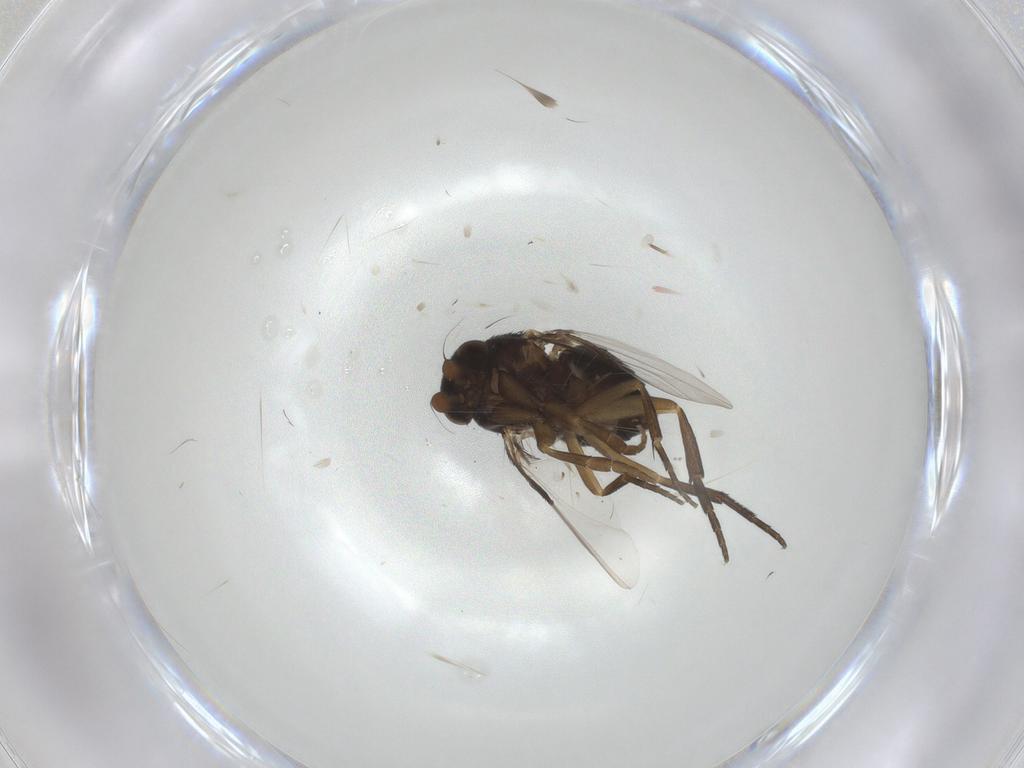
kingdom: Animalia
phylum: Arthropoda
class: Insecta
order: Diptera
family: Phoridae
